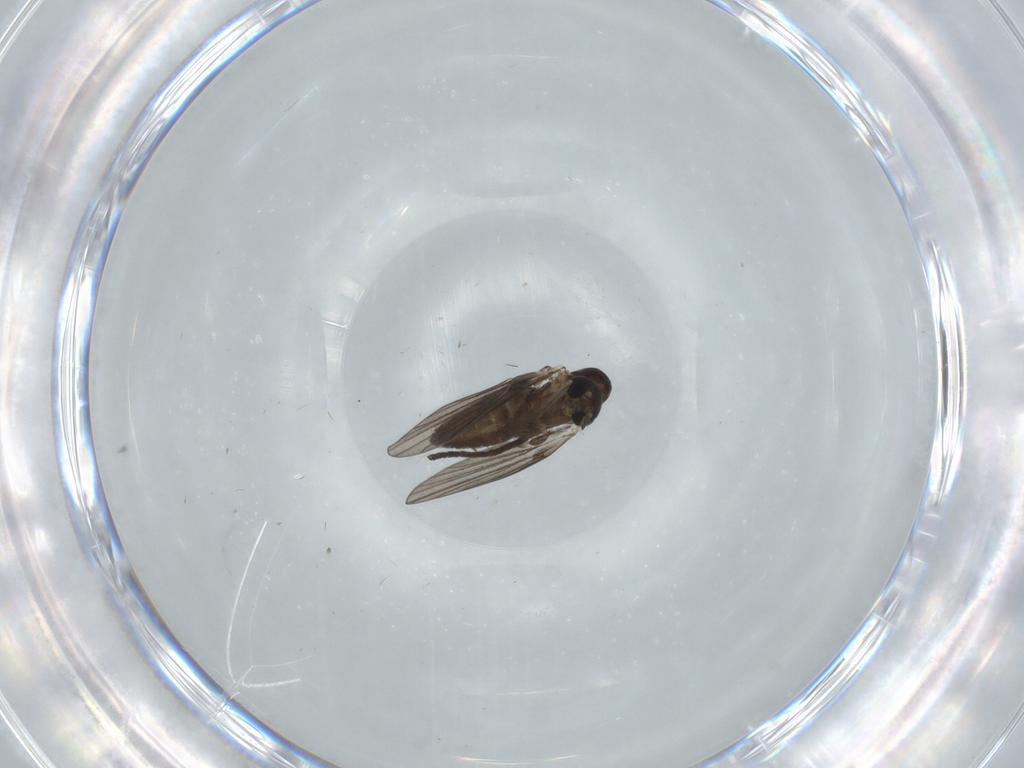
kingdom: Animalia
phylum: Arthropoda
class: Insecta
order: Diptera
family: Cecidomyiidae
